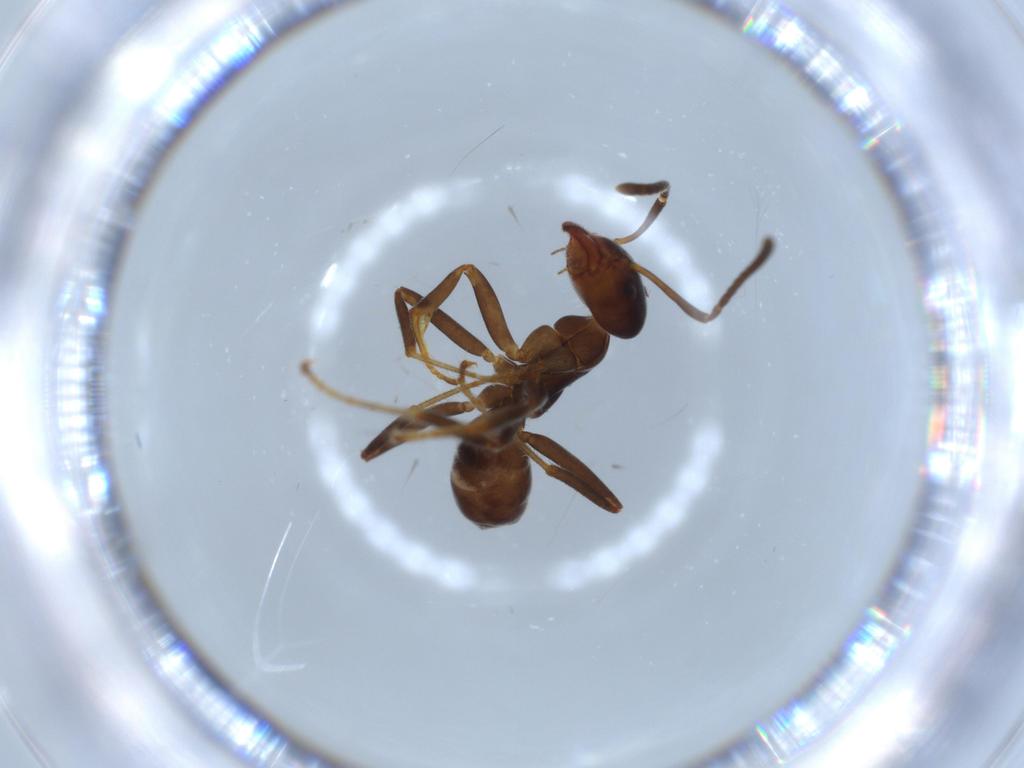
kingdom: Animalia
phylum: Arthropoda
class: Insecta
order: Hymenoptera
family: Formicidae
